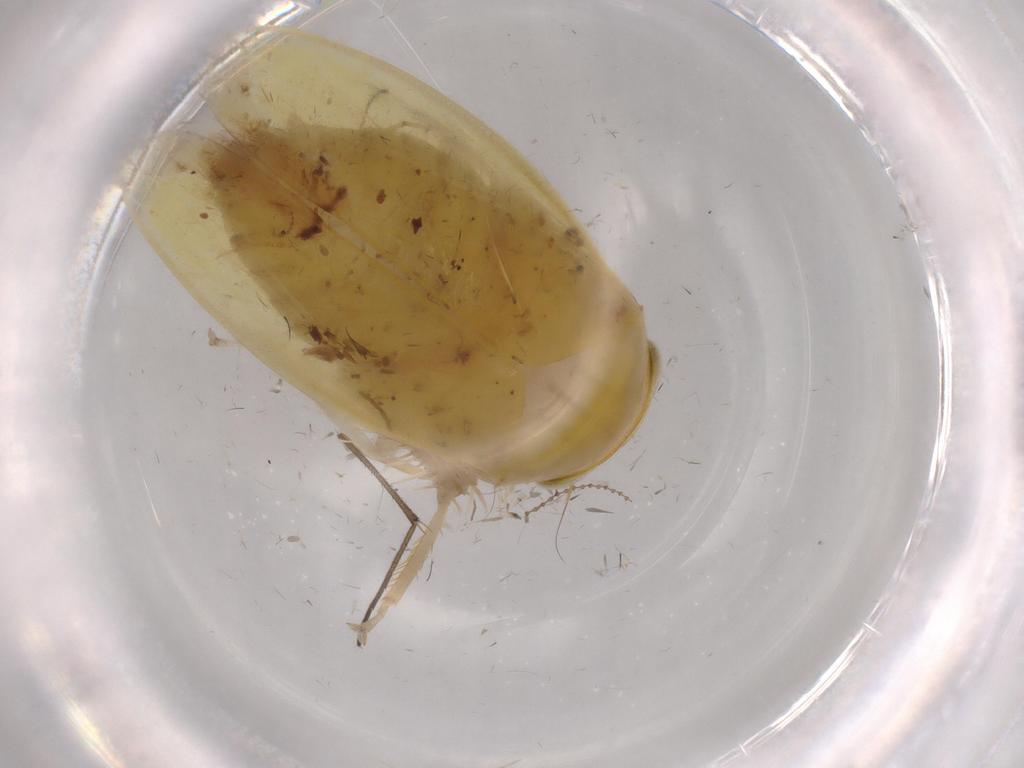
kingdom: Animalia
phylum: Arthropoda
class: Insecta
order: Hemiptera
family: Cicadellidae
